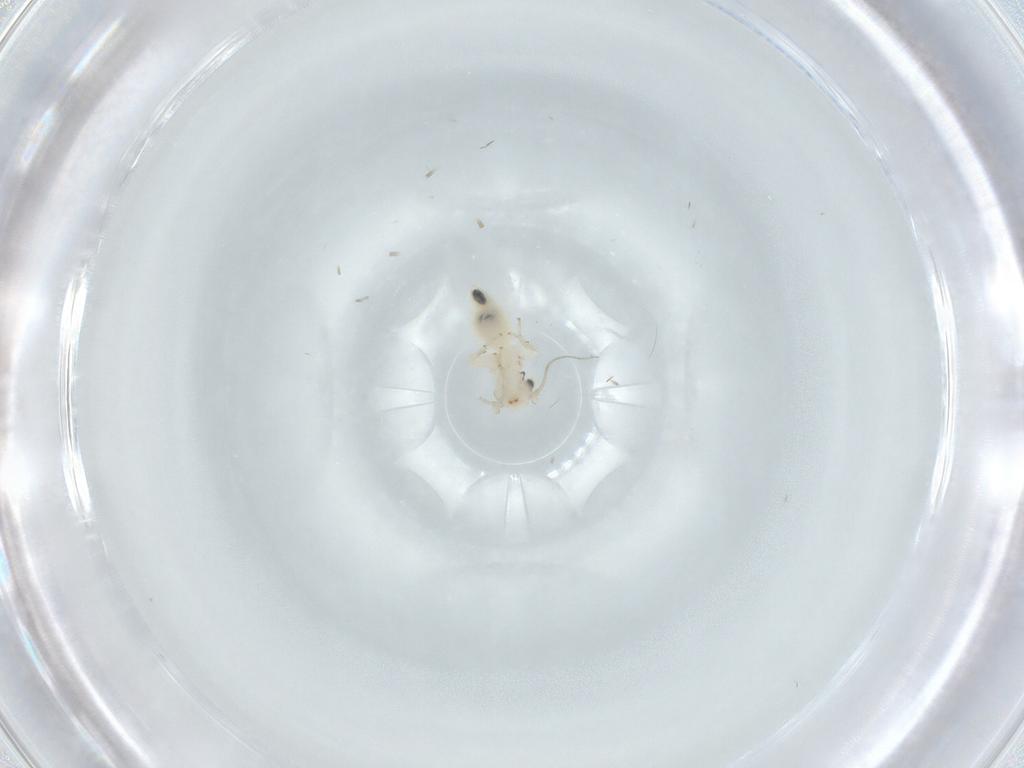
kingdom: Animalia
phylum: Arthropoda
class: Insecta
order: Psocodea
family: Lepidopsocidae
